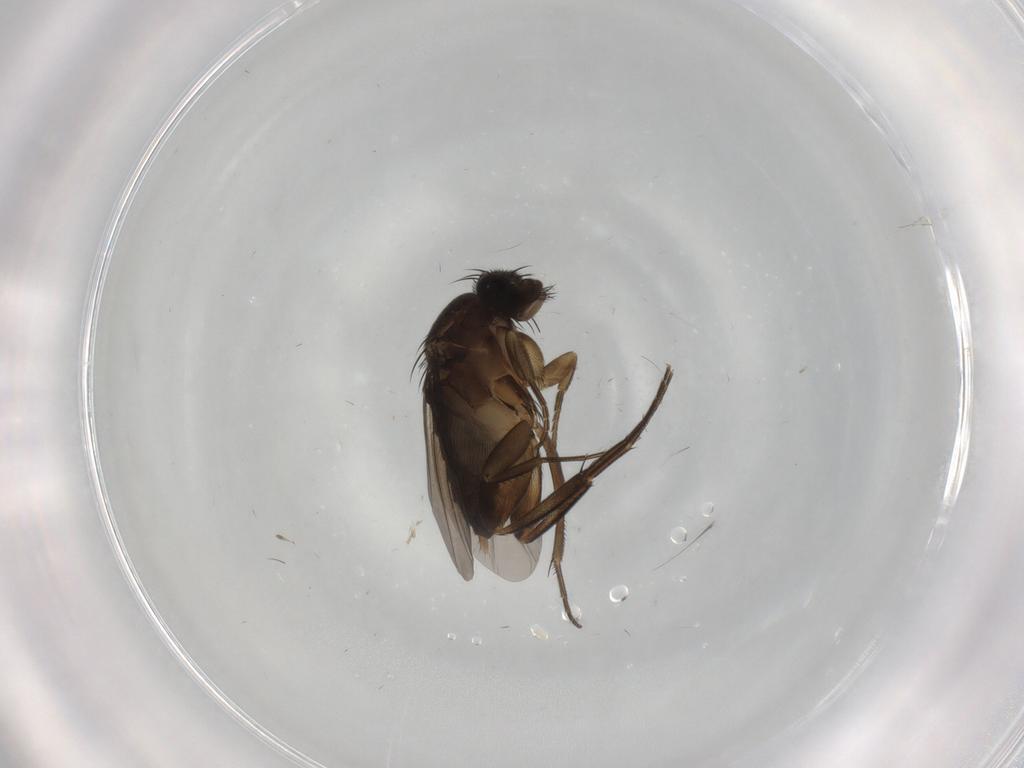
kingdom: Animalia
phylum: Arthropoda
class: Insecta
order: Diptera
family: Phoridae
